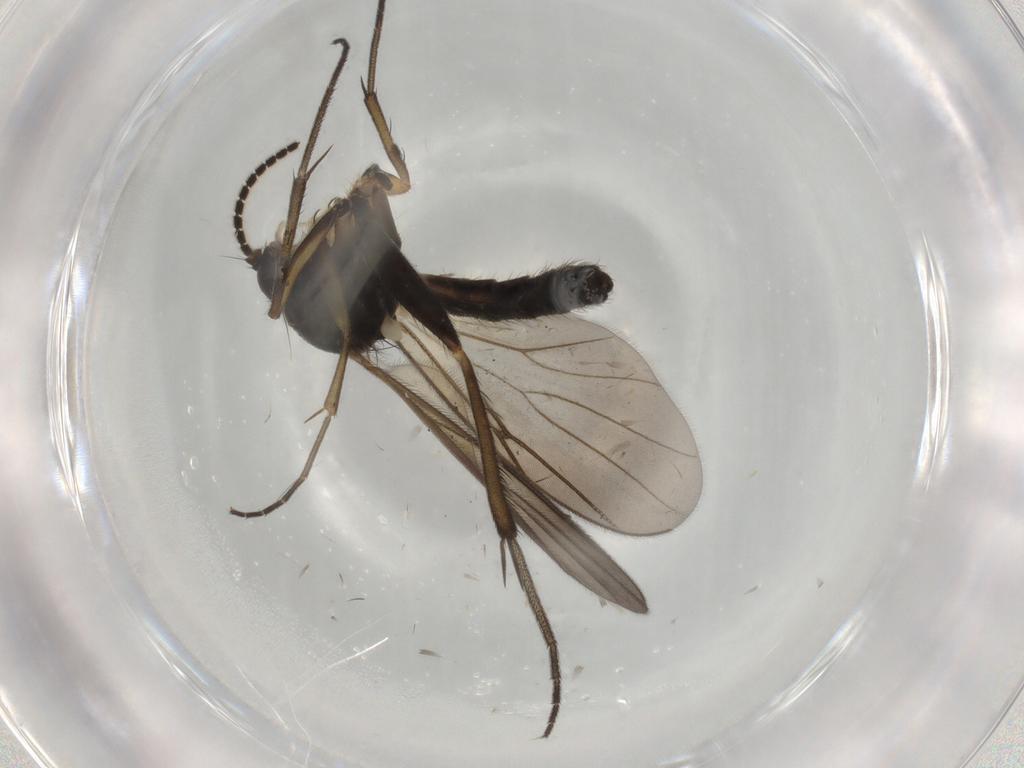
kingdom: Animalia
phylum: Arthropoda
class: Insecta
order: Diptera
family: Mycetophilidae
